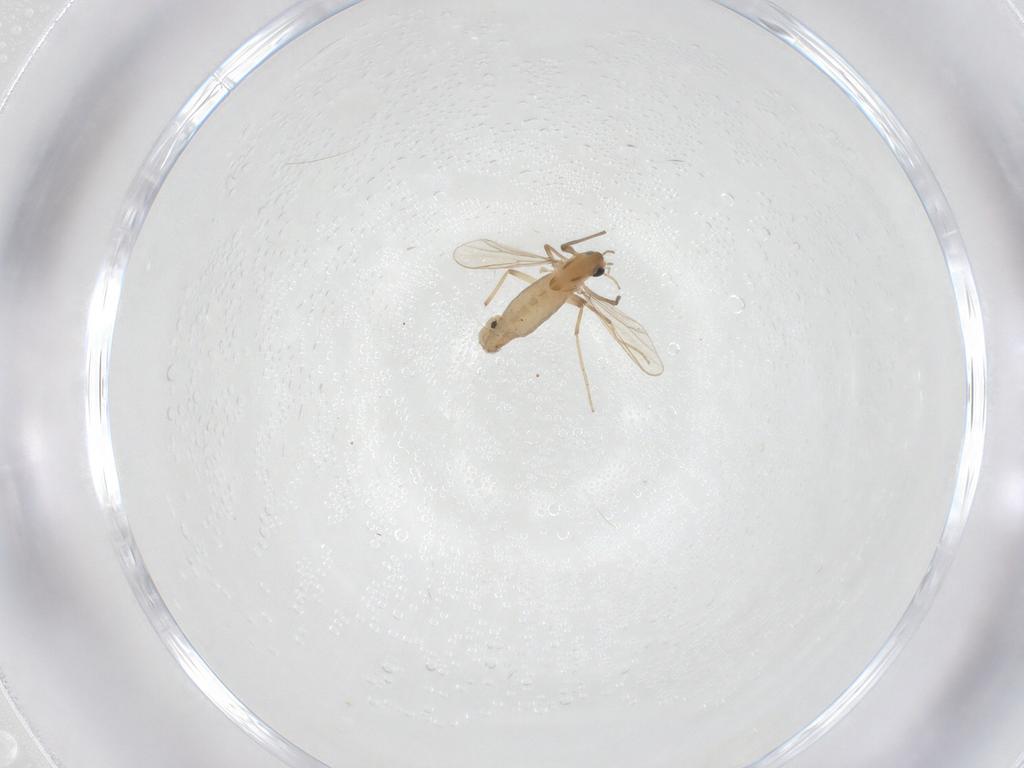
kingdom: Animalia
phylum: Arthropoda
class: Insecta
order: Diptera
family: Chironomidae
